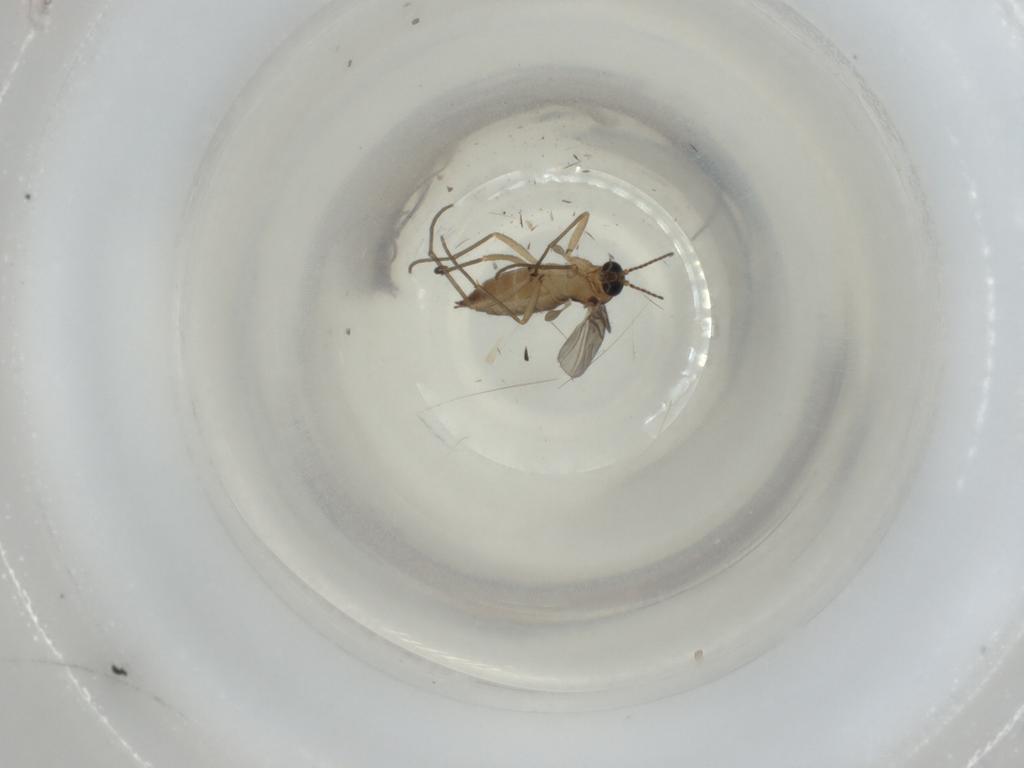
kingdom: Animalia
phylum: Arthropoda
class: Insecta
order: Diptera
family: Sciaridae
